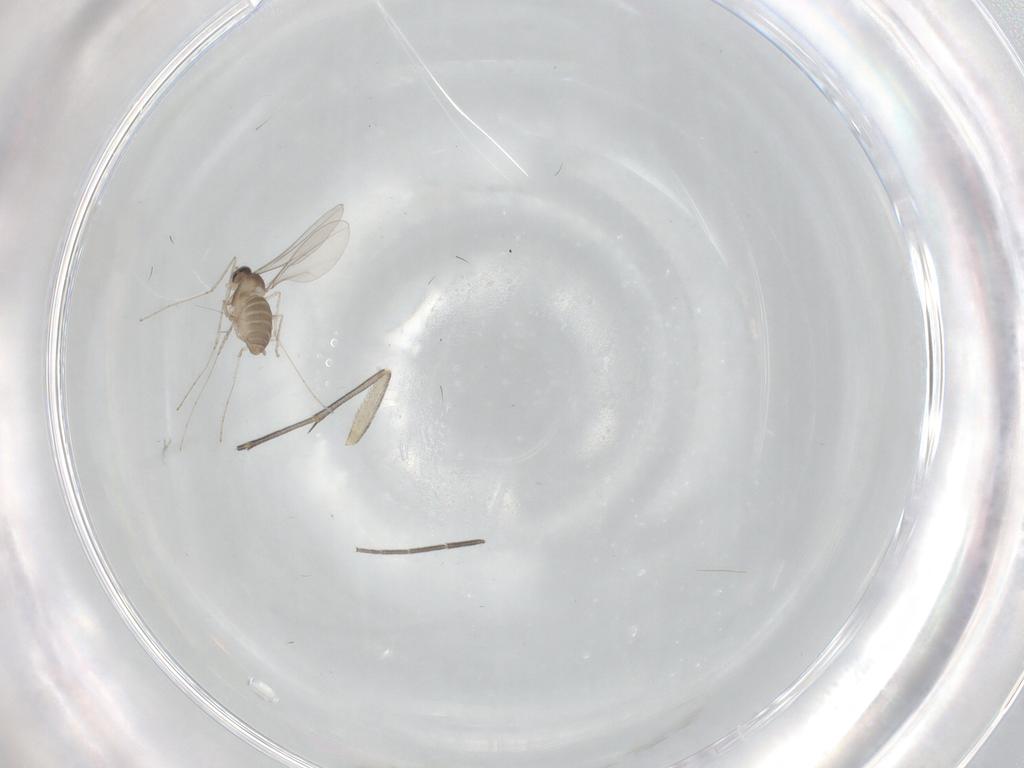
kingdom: Animalia
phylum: Arthropoda
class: Insecta
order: Diptera
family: Cecidomyiidae
